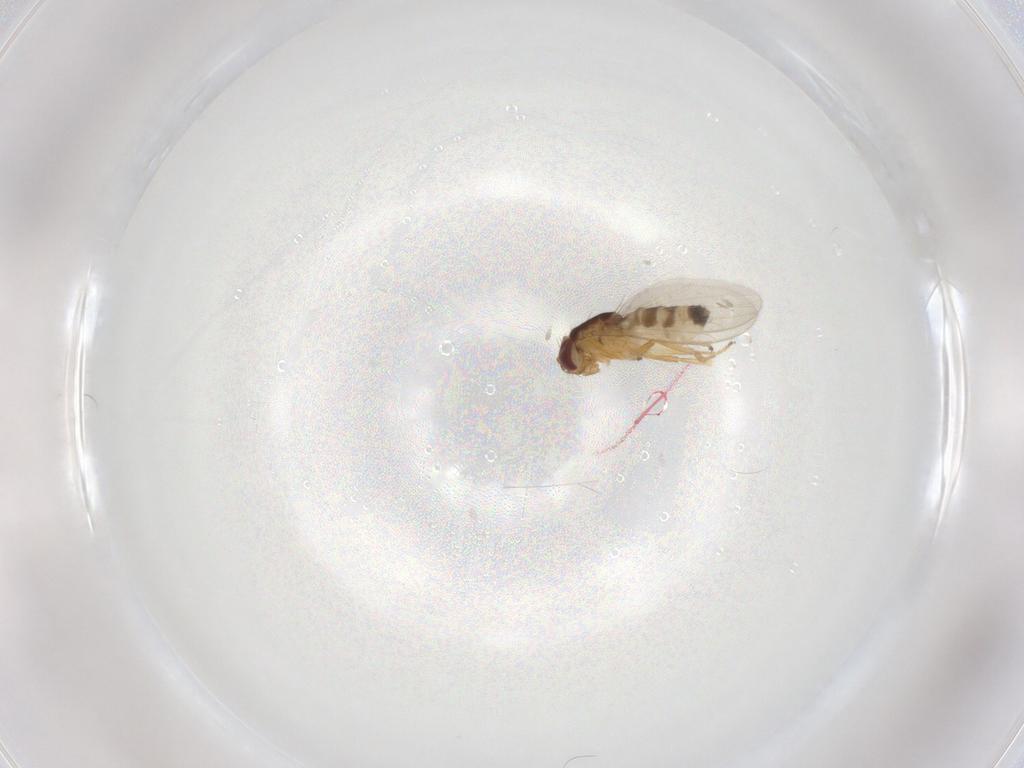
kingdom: Animalia
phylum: Arthropoda
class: Insecta
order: Diptera
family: Periscelididae
